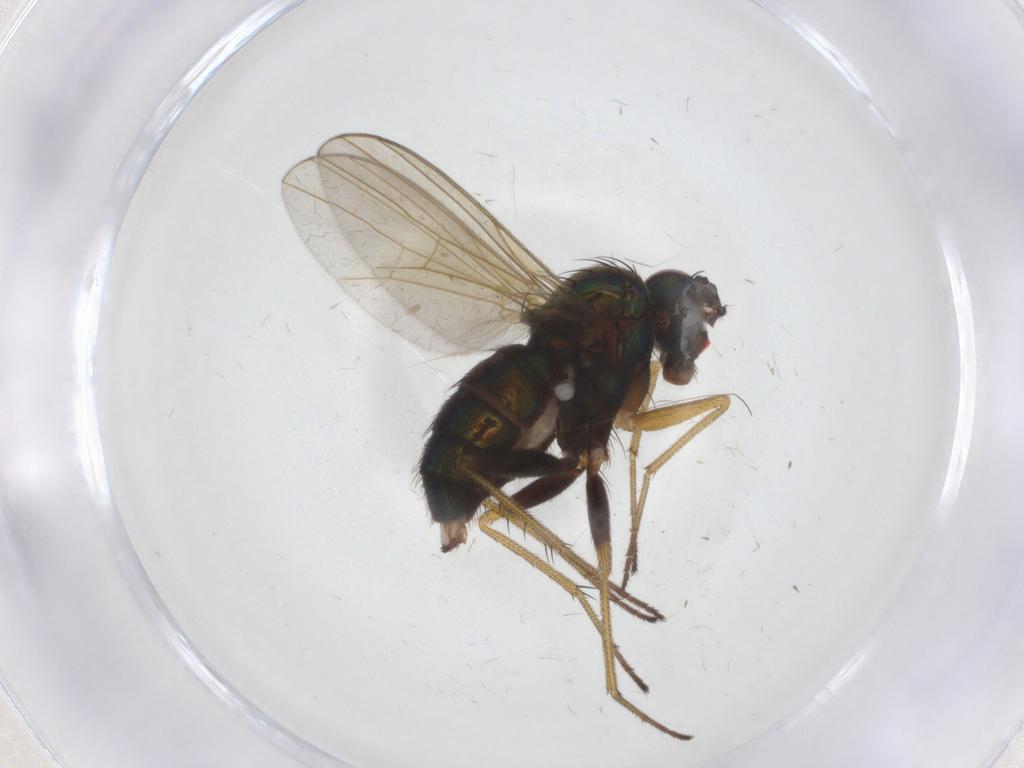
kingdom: Animalia
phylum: Arthropoda
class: Insecta
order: Diptera
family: Dolichopodidae
